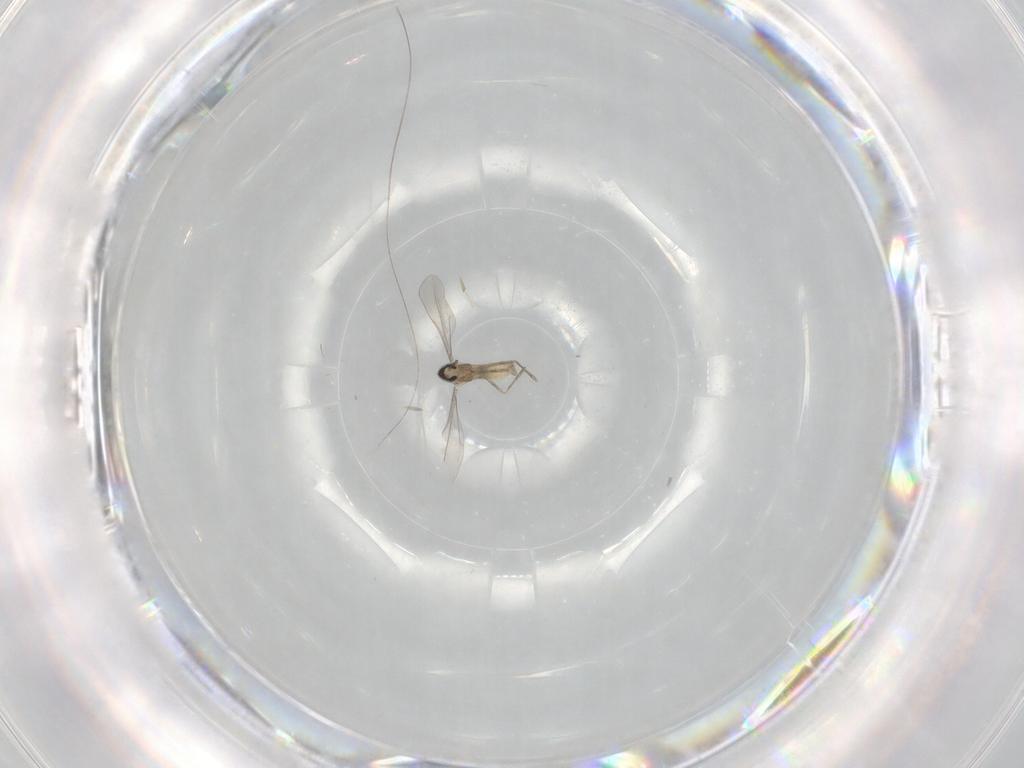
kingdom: Animalia
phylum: Arthropoda
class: Insecta
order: Diptera
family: Cecidomyiidae
